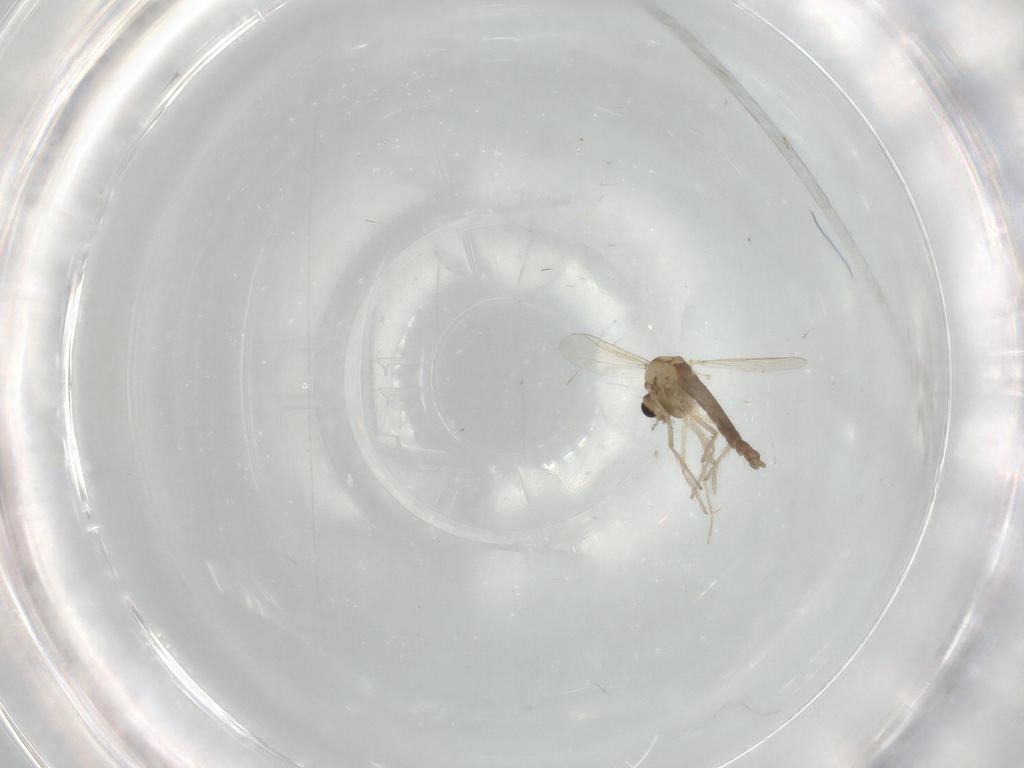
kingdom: Animalia
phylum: Arthropoda
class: Insecta
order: Diptera
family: Chironomidae
